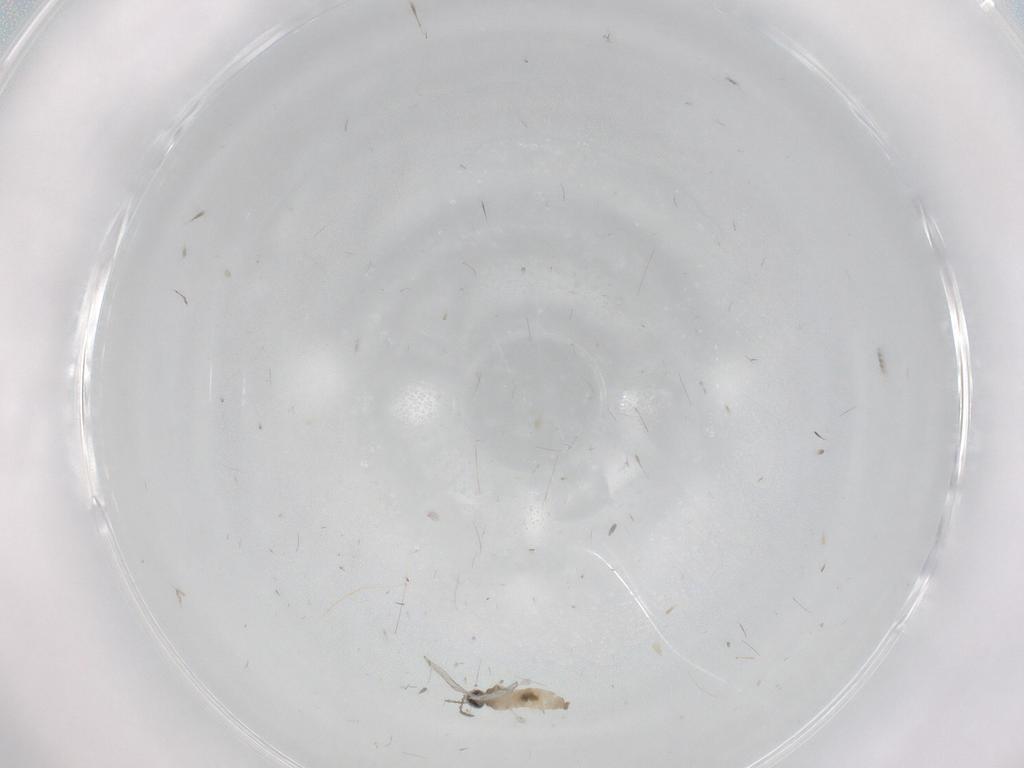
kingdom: Animalia
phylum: Arthropoda
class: Insecta
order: Diptera
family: Cecidomyiidae
